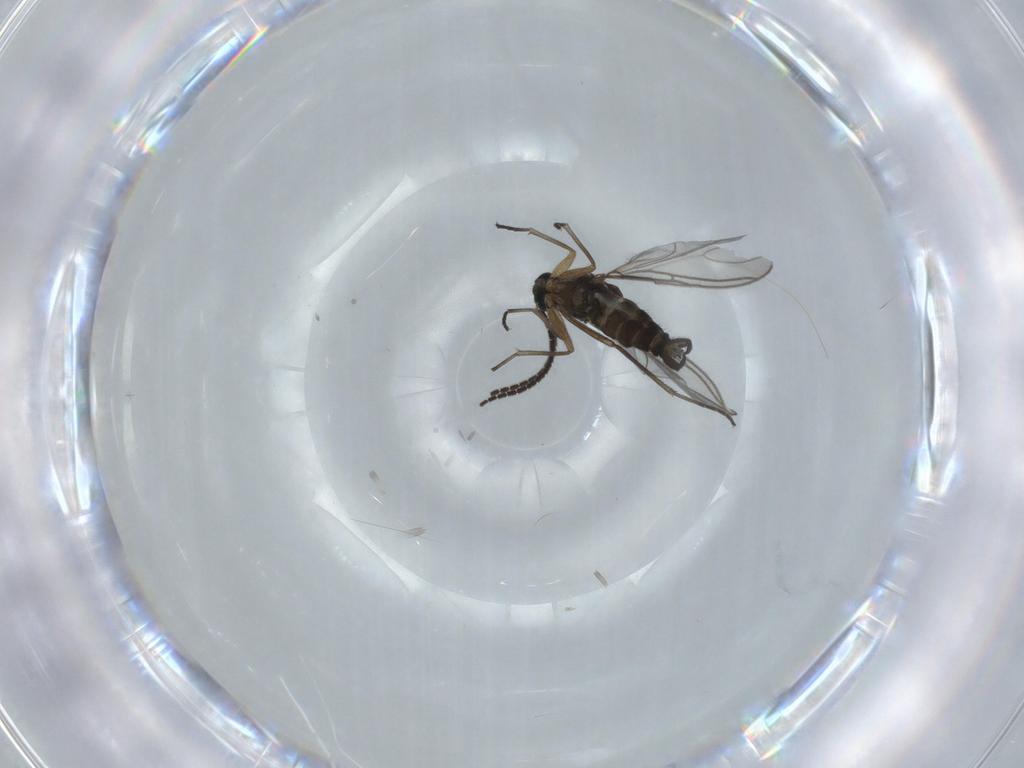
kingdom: Animalia
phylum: Arthropoda
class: Insecta
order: Diptera
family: Sciaridae
